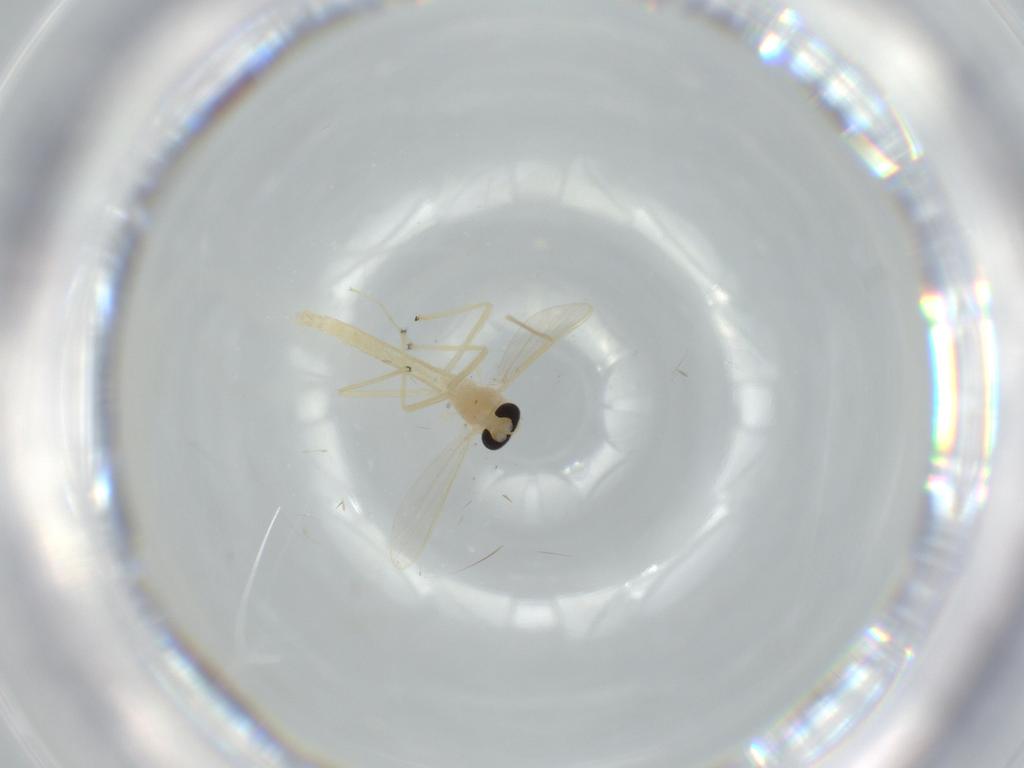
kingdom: Animalia
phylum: Arthropoda
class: Insecta
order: Diptera
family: Chironomidae
